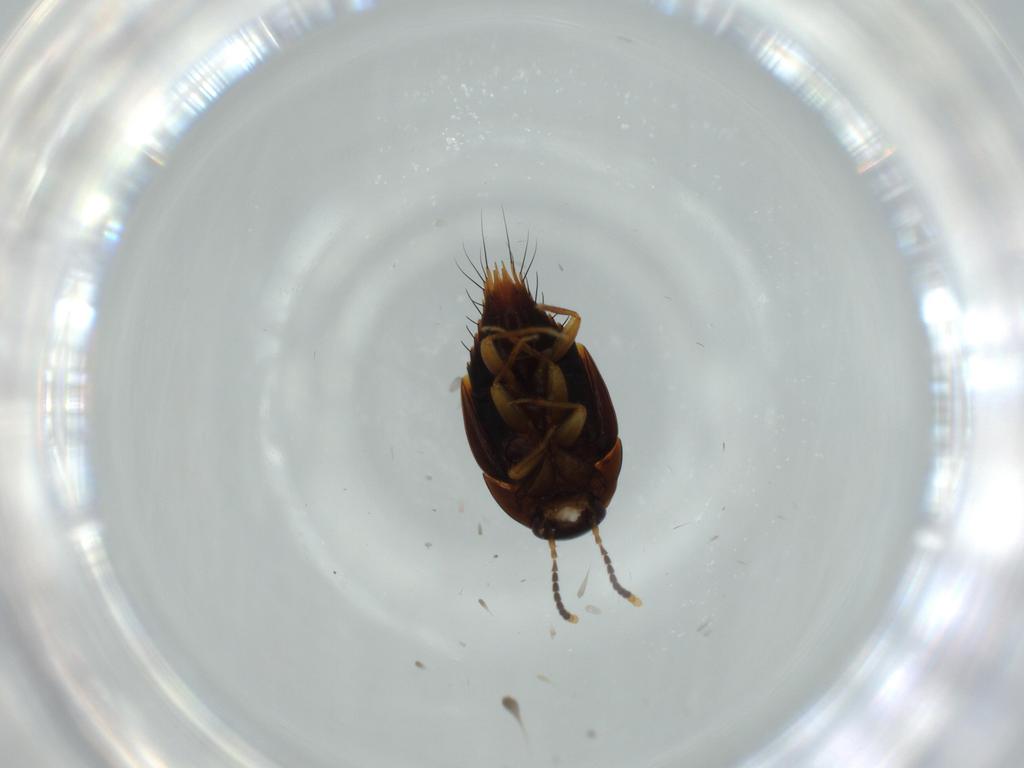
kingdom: Animalia
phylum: Arthropoda
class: Insecta
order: Coleoptera
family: Staphylinidae
